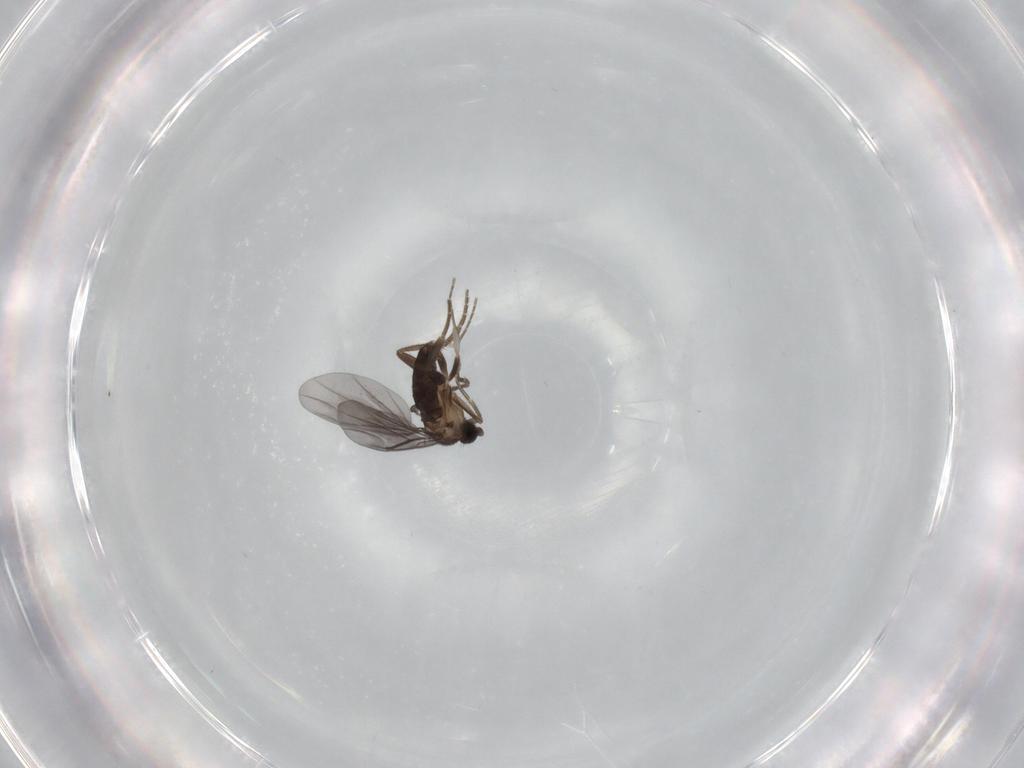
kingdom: Animalia
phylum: Arthropoda
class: Insecta
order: Diptera
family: Phoridae
